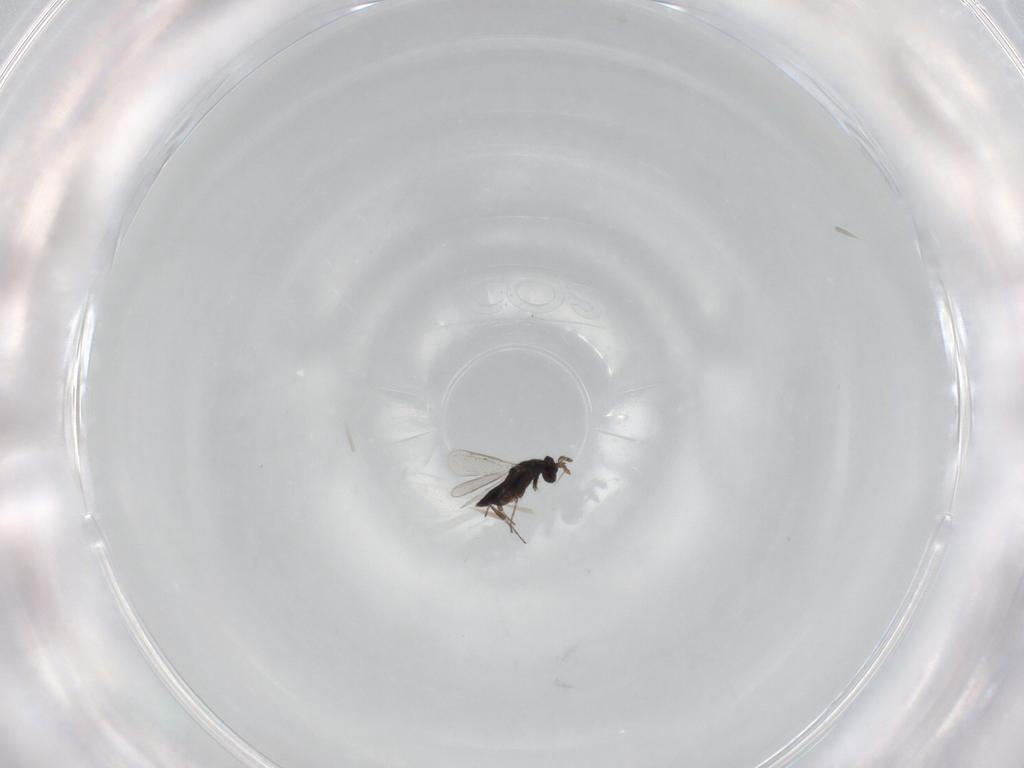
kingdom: Animalia
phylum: Arthropoda
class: Insecta
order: Hymenoptera
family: Eulophidae
